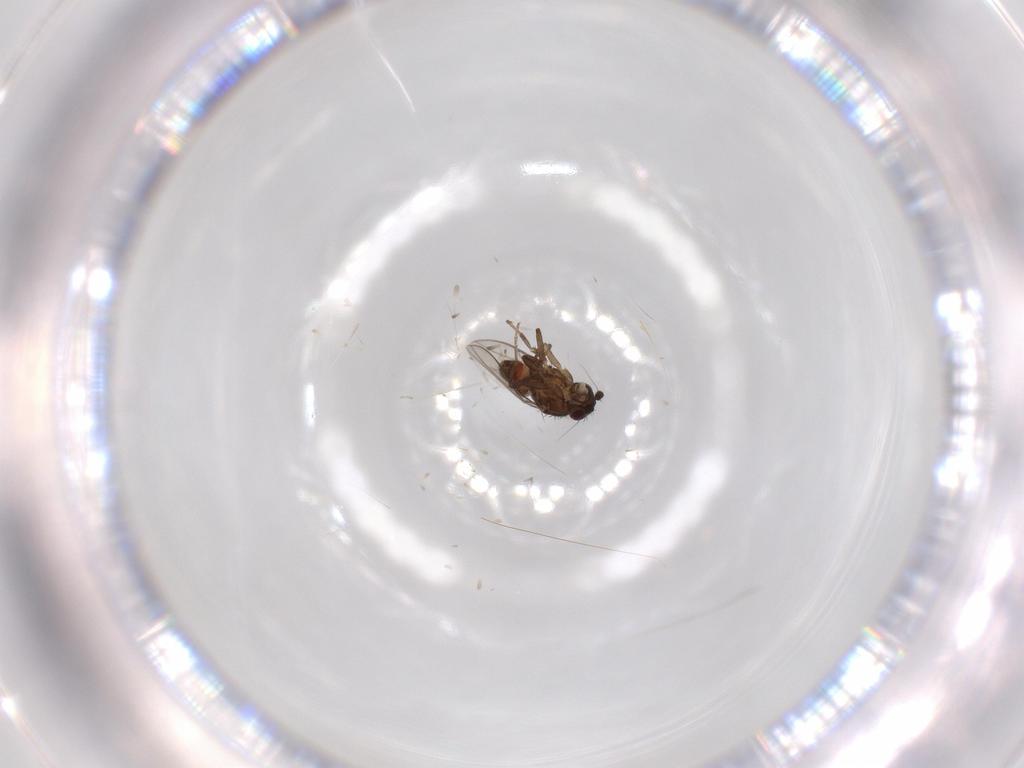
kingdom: Animalia
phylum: Arthropoda
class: Insecta
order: Diptera
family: Sphaeroceridae
